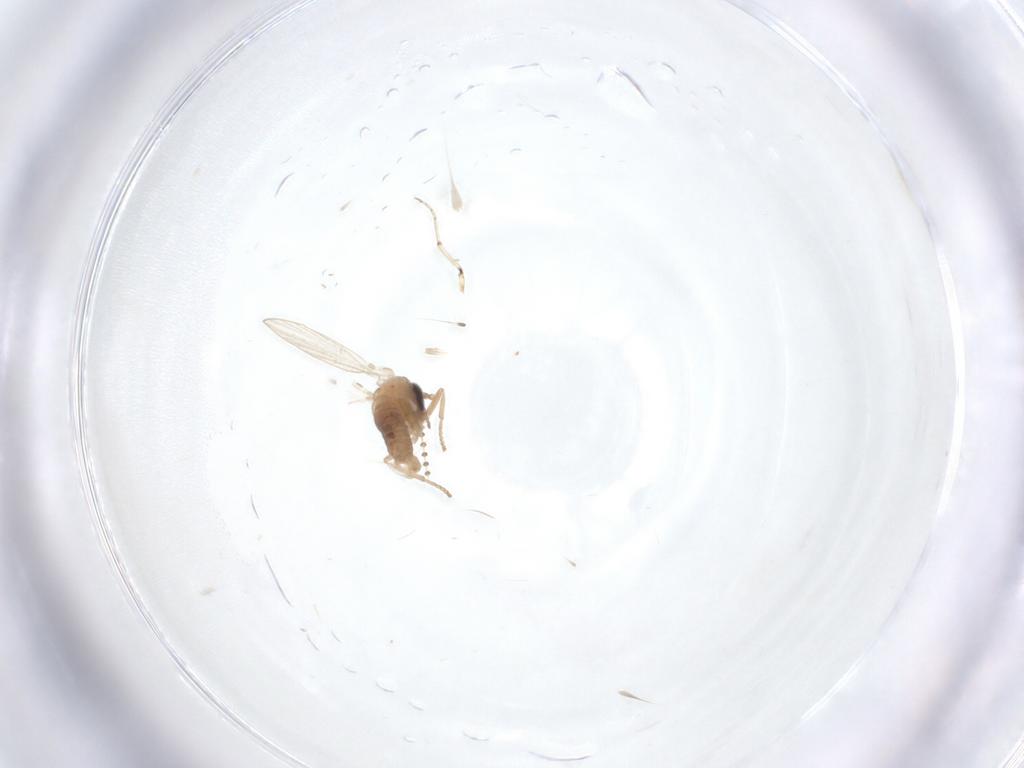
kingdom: Animalia
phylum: Arthropoda
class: Insecta
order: Diptera
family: Psychodidae
